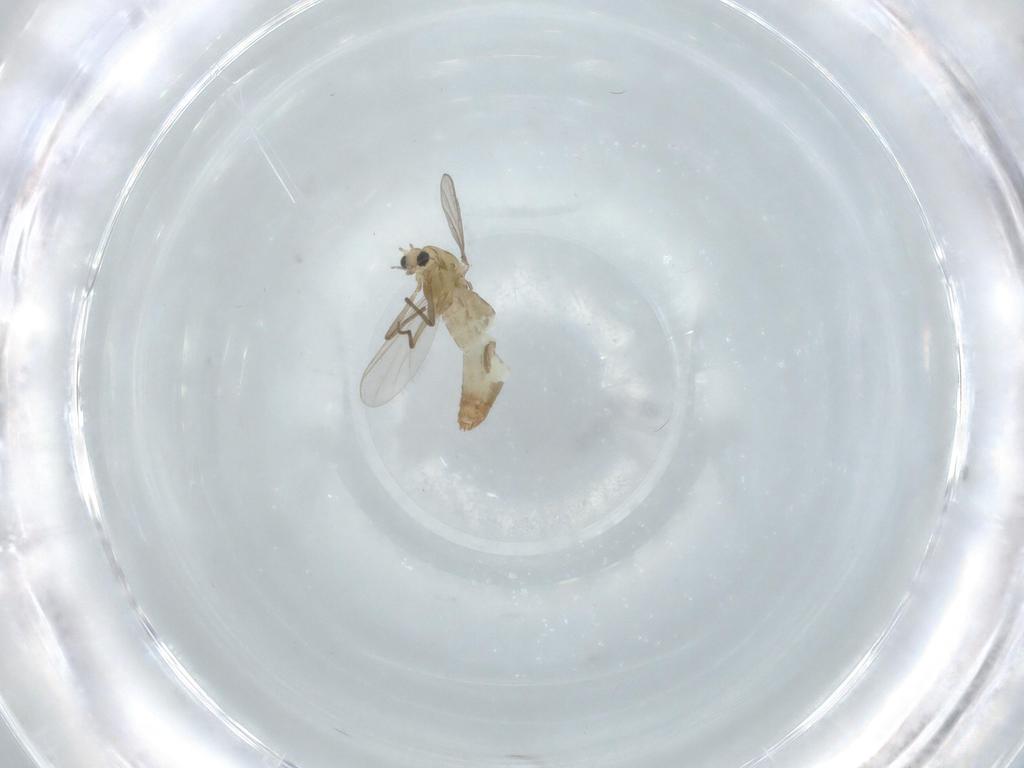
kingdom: Animalia
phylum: Arthropoda
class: Insecta
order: Diptera
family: Chironomidae
